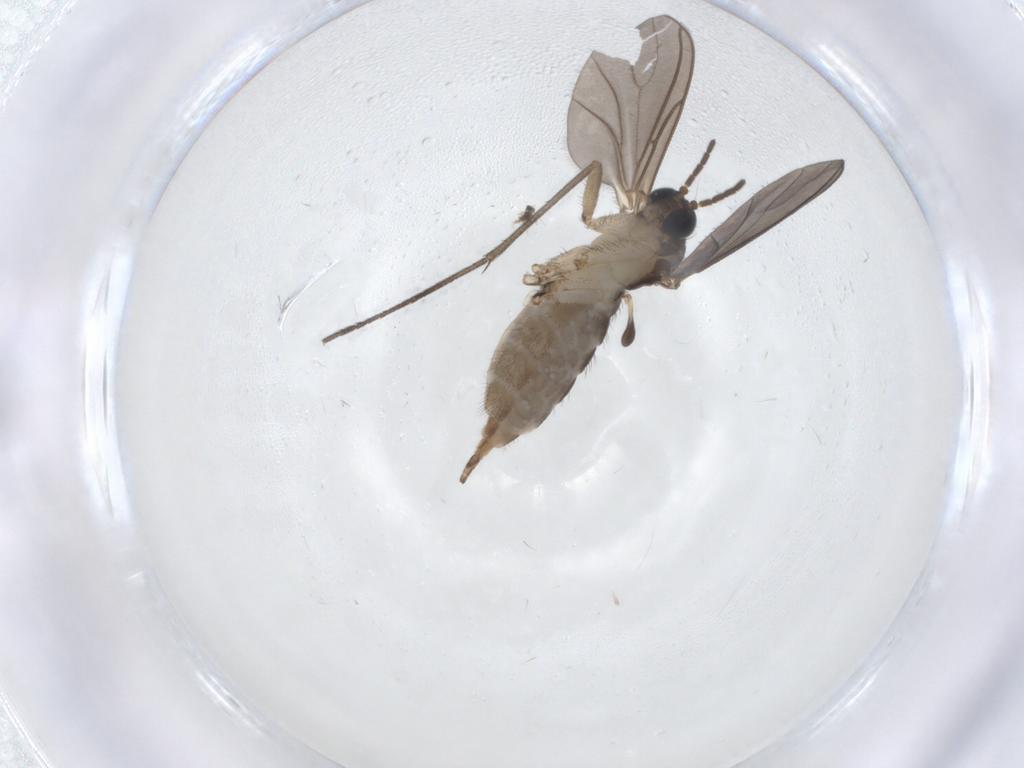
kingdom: Animalia
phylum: Arthropoda
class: Insecta
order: Diptera
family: Sciaridae
